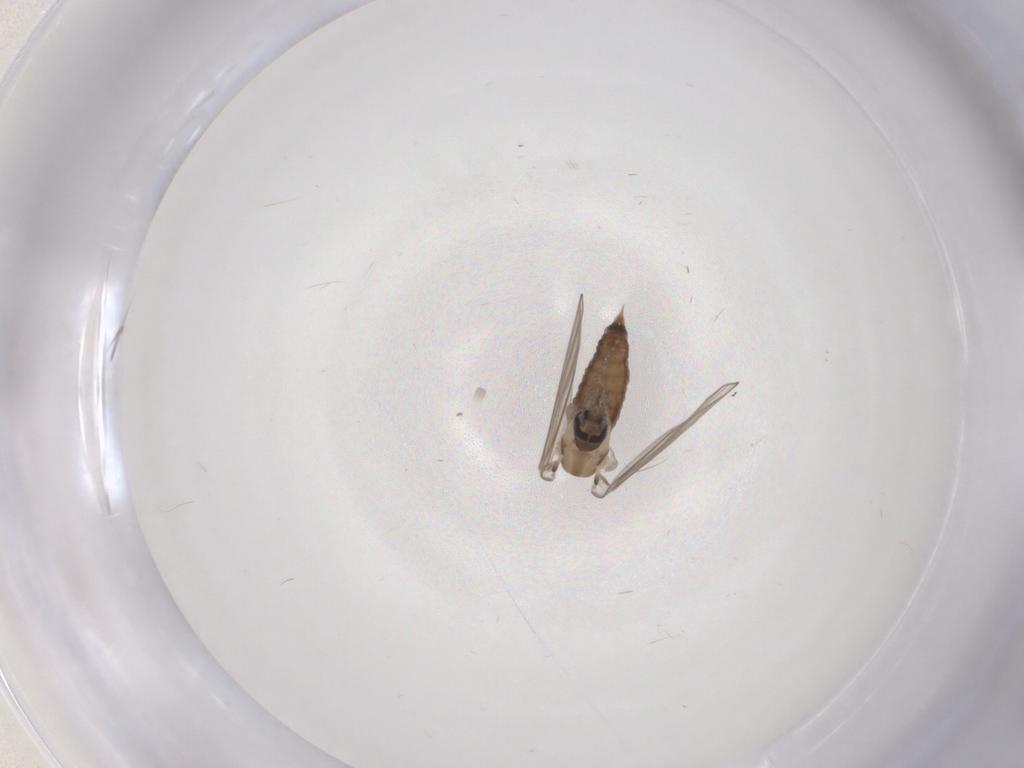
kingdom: Animalia
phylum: Arthropoda
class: Insecta
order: Diptera
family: Psychodidae
